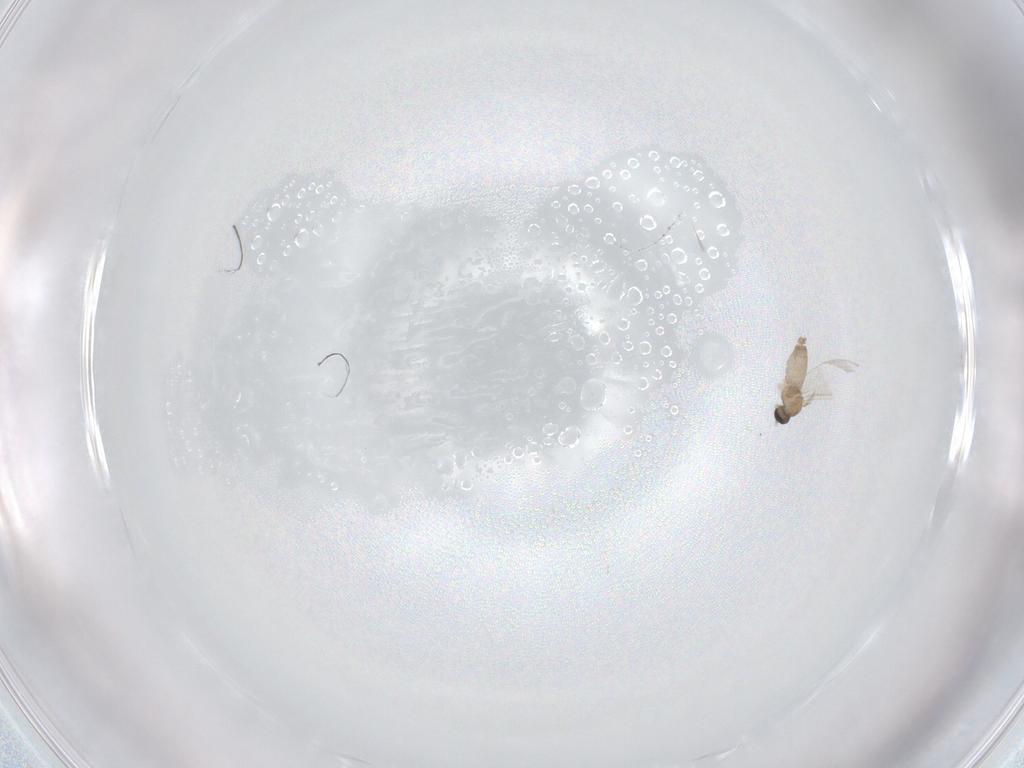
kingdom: Animalia
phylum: Arthropoda
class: Insecta
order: Diptera
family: Cecidomyiidae
